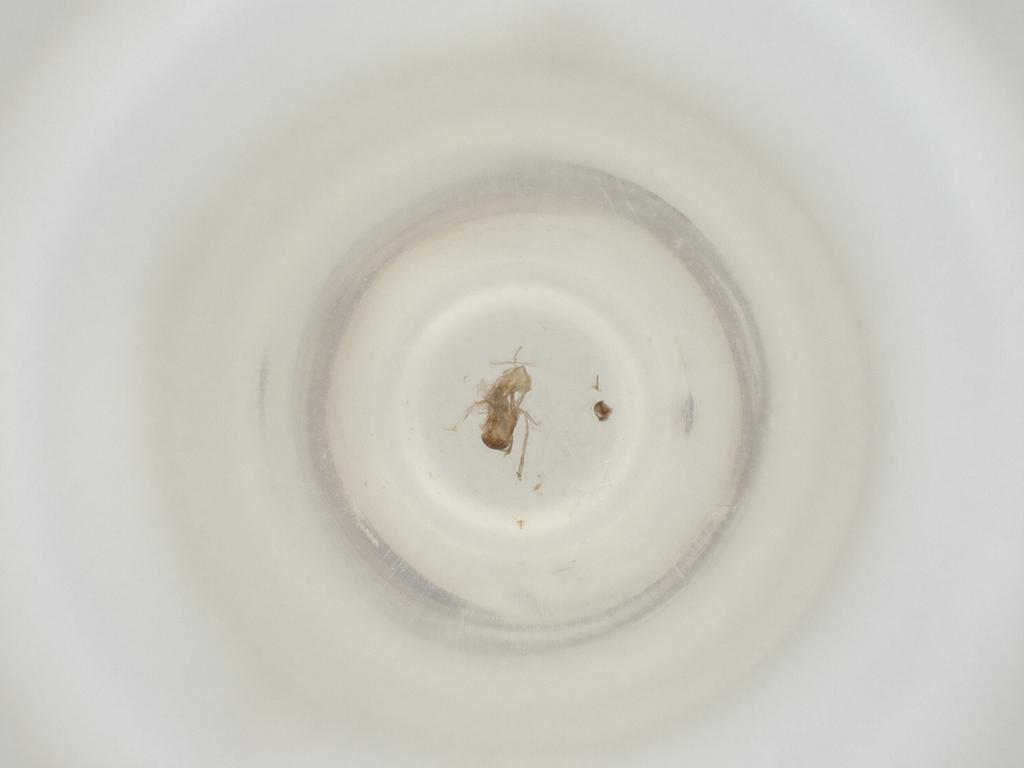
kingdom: Animalia
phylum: Arthropoda
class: Insecta
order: Diptera
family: Cecidomyiidae
